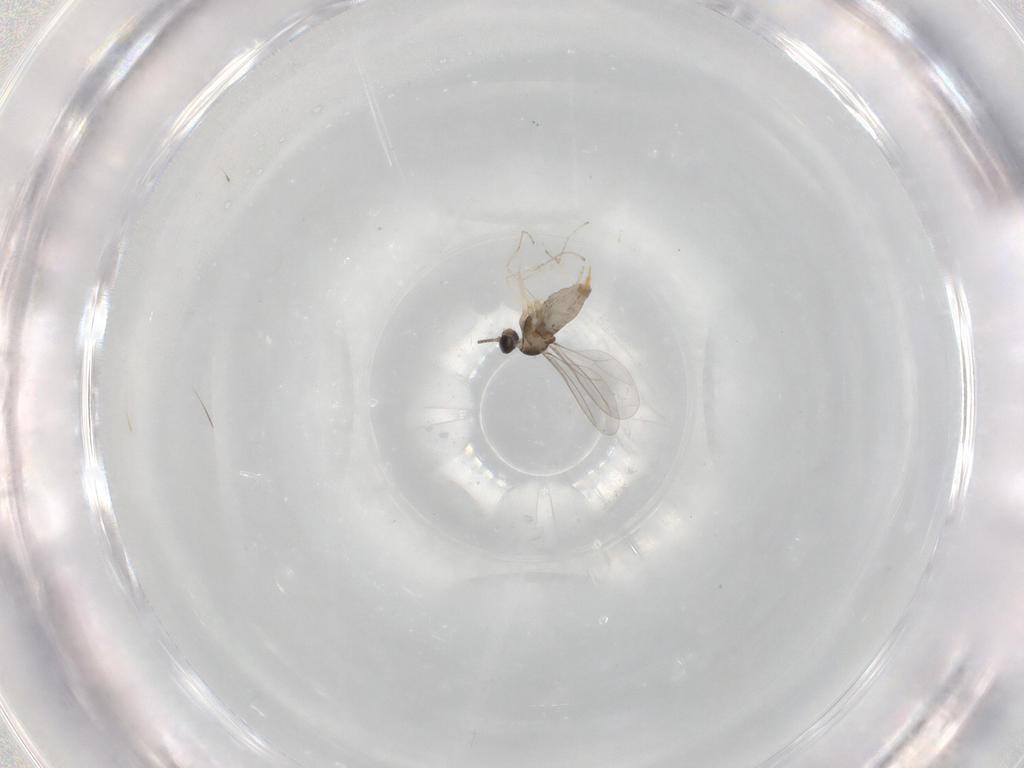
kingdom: Animalia
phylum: Arthropoda
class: Insecta
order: Diptera
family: Cecidomyiidae
